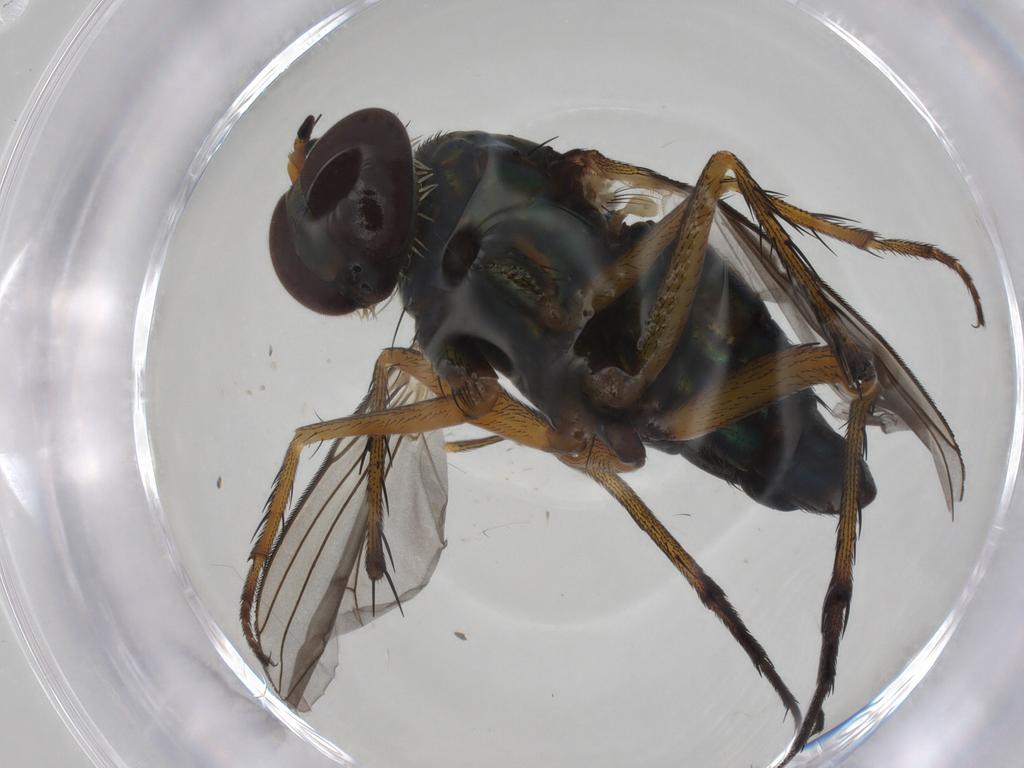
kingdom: Animalia
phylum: Arthropoda
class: Insecta
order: Diptera
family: Dolichopodidae
